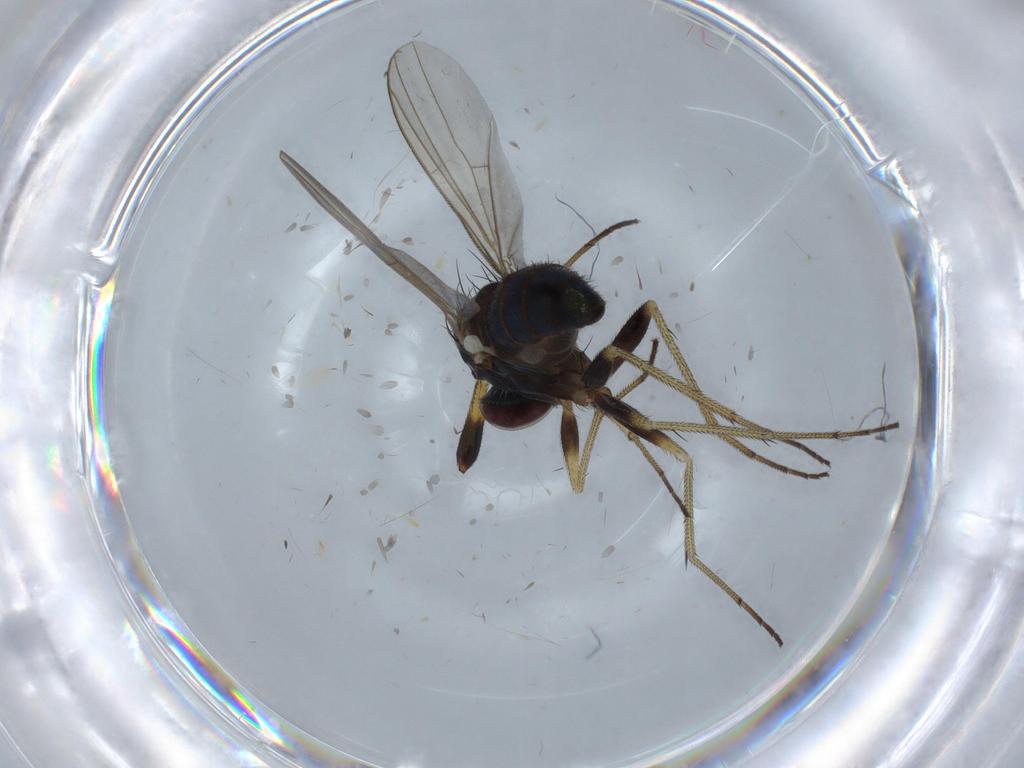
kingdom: Animalia
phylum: Arthropoda
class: Insecta
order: Diptera
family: Dolichopodidae
